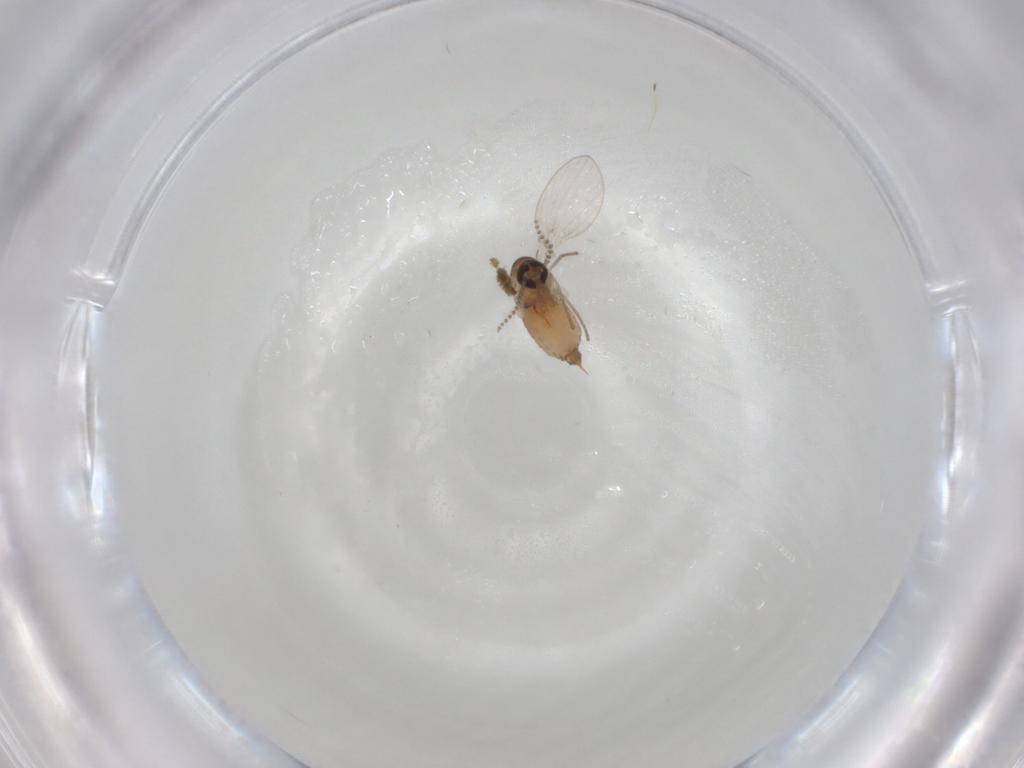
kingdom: Animalia
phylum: Arthropoda
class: Insecta
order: Diptera
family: Psychodidae
